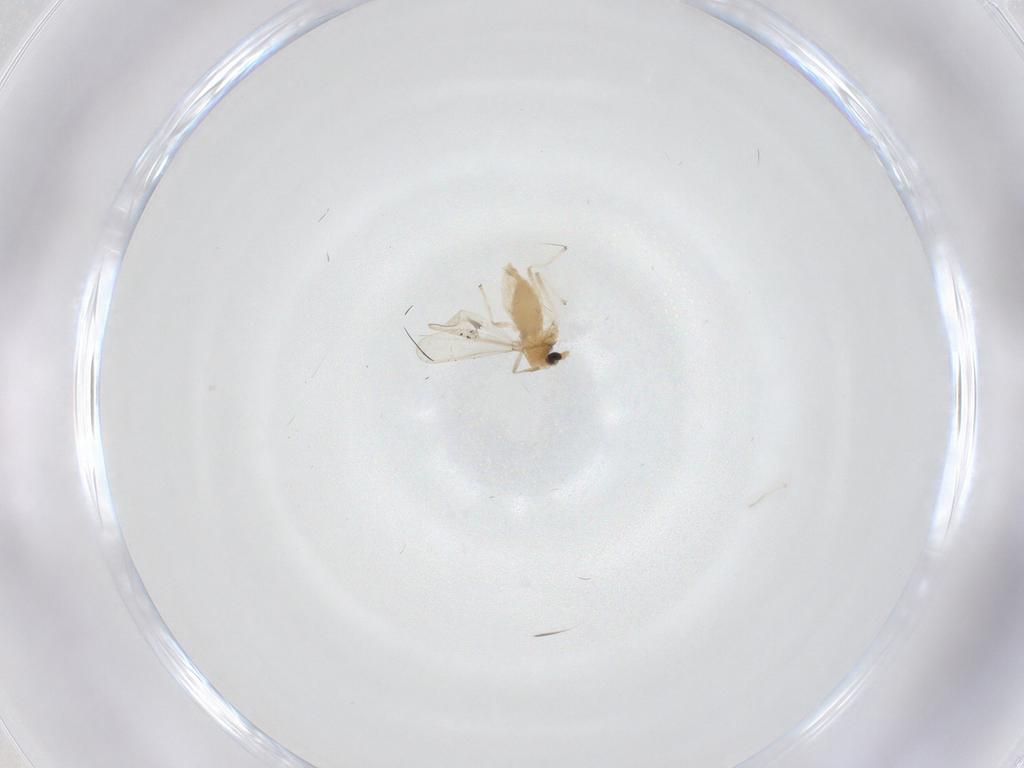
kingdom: Animalia
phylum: Arthropoda
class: Insecta
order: Diptera
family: Chironomidae
